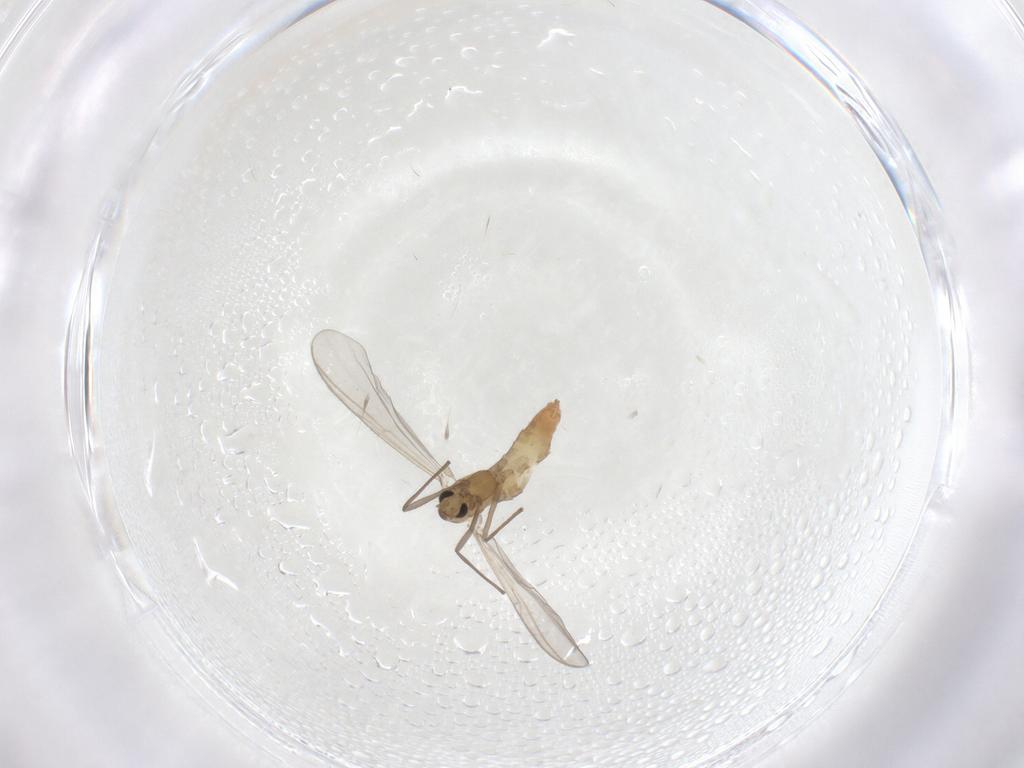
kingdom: Animalia
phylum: Arthropoda
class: Insecta
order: Diptera
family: Chironomidae
